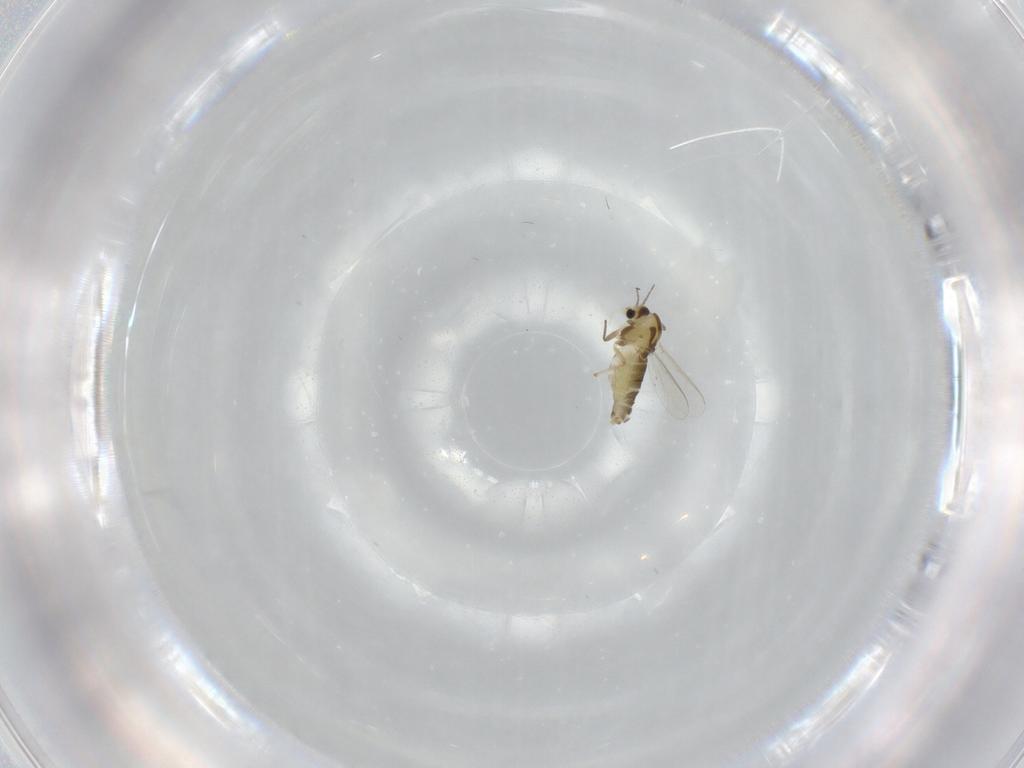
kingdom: Animalia
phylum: Arthropoda
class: Insecta
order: Diptera
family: Chironomidae
